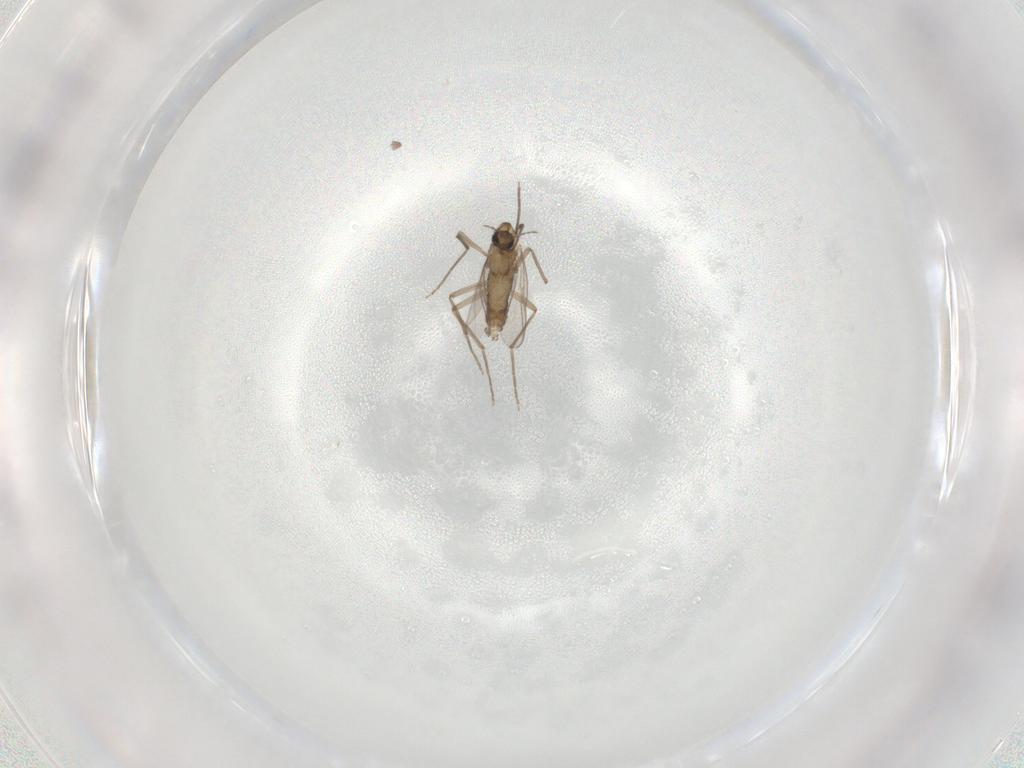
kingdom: Animalia
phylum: Arthropoda
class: Insecta
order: Diptera
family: Chironomidae
